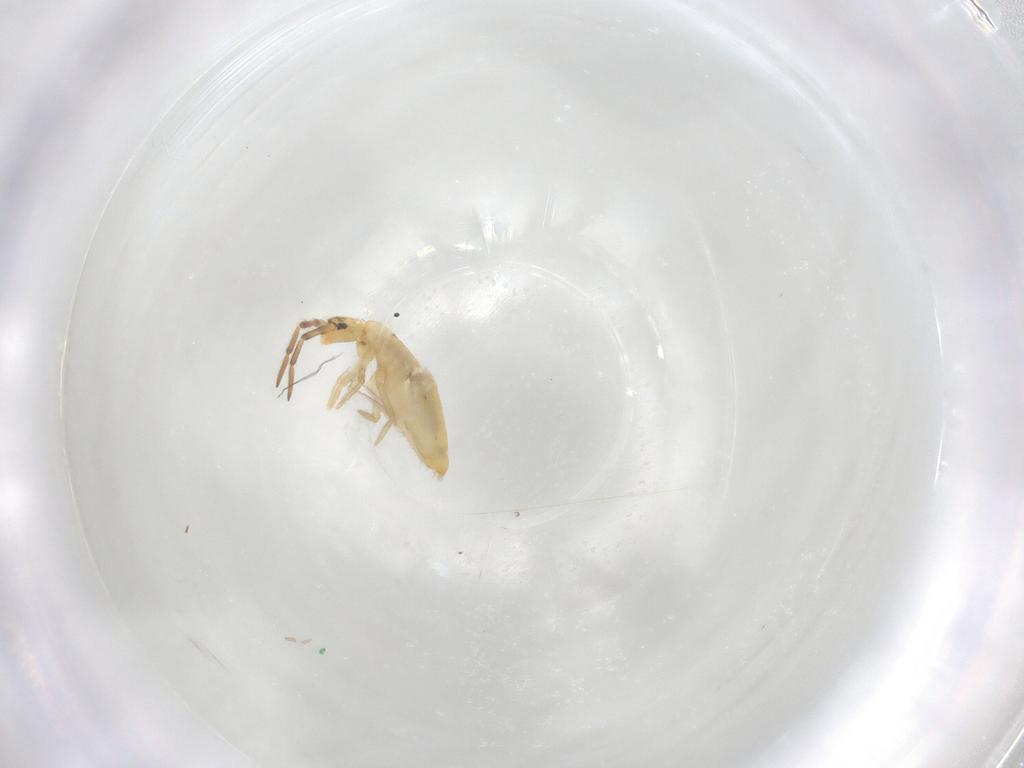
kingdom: Animalia
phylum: Arthropoda
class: Collembola
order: Entomobryomorpha
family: Entomobryidae
